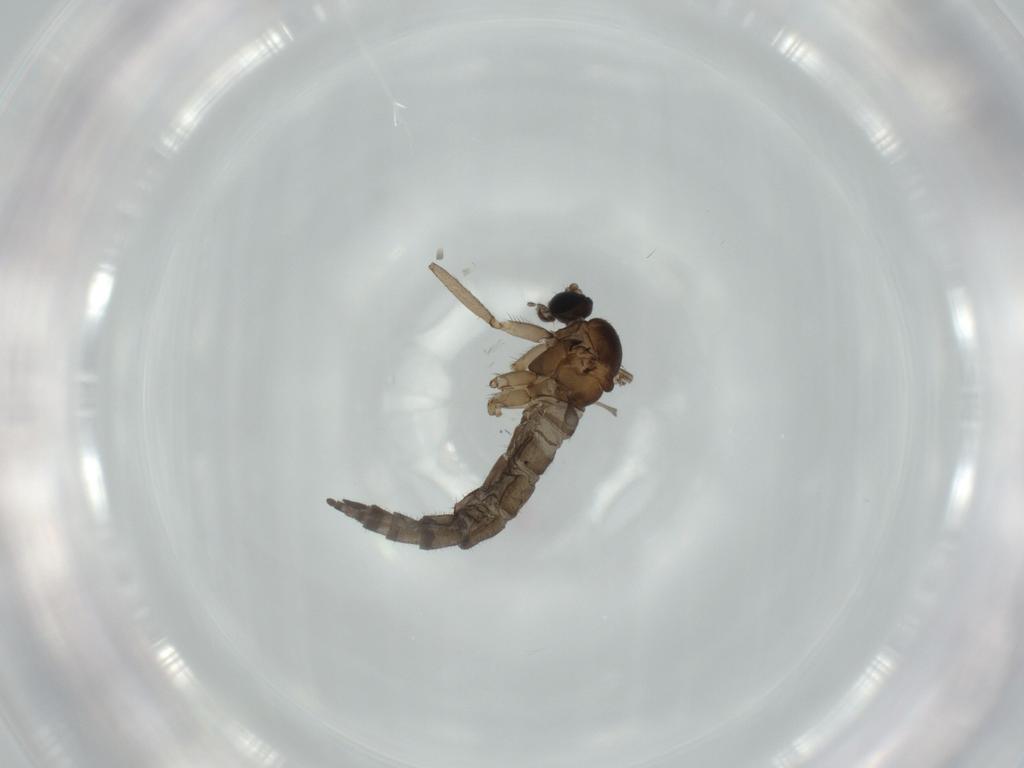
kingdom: Animalia
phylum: Arthropoda
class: Insecta
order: Diptera
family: Sciaridae
